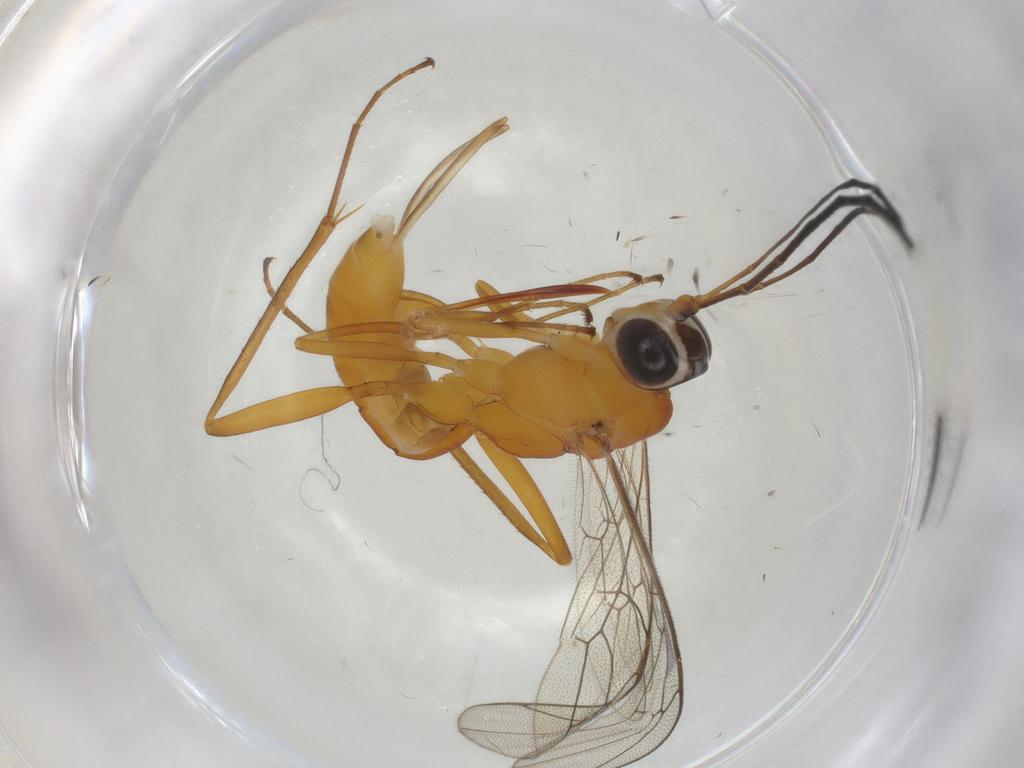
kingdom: Animalia
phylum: Arthropoda
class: Insecta
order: Hymenoptera
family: Ichneumonidae
